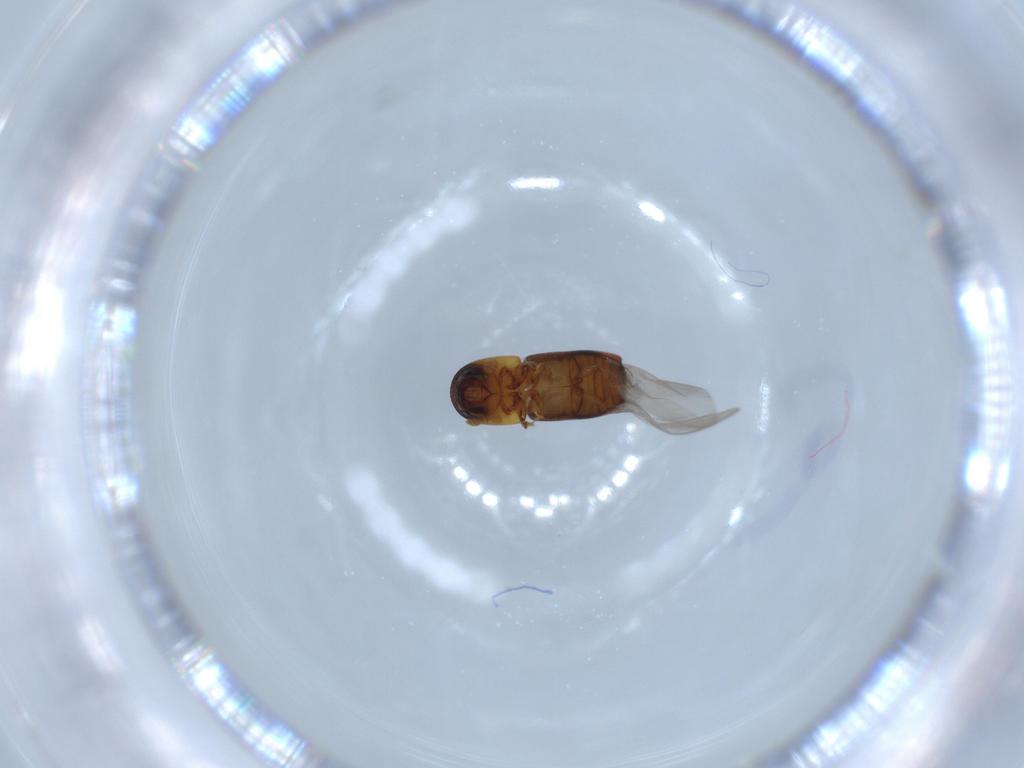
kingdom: Animalia
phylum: Arthropoda
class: Insecta
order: Coleoptera
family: Curculionidae
